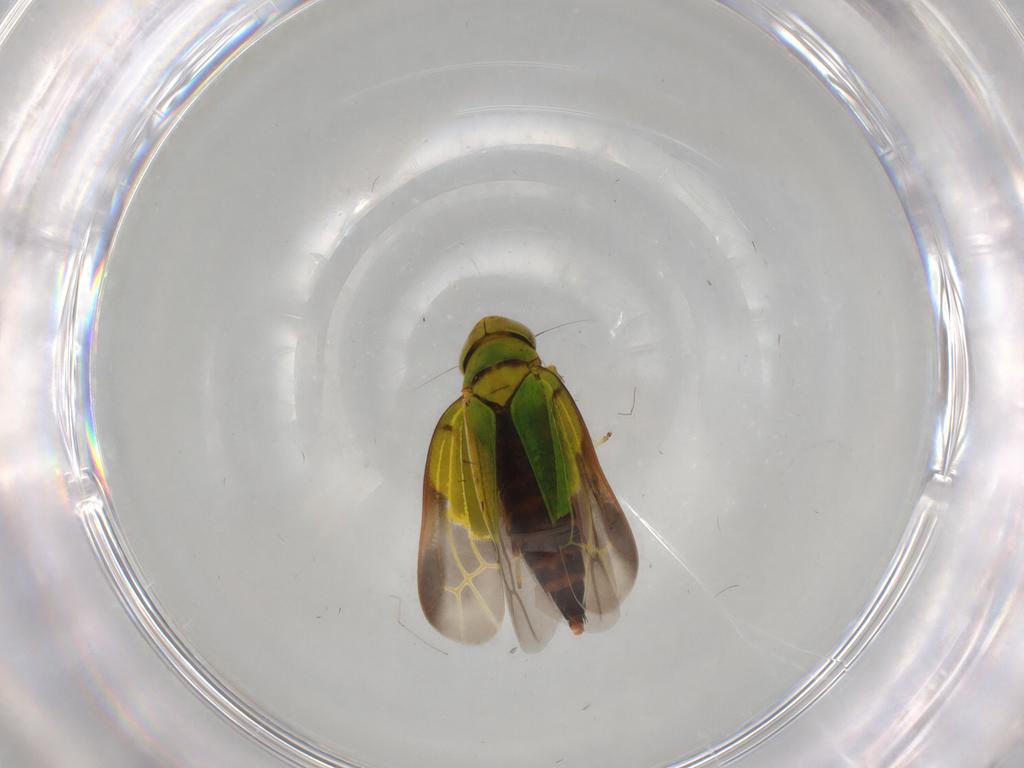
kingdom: Animalia
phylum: Arthropoda
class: Insecta
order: Hemiptera
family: Cicadellidae
